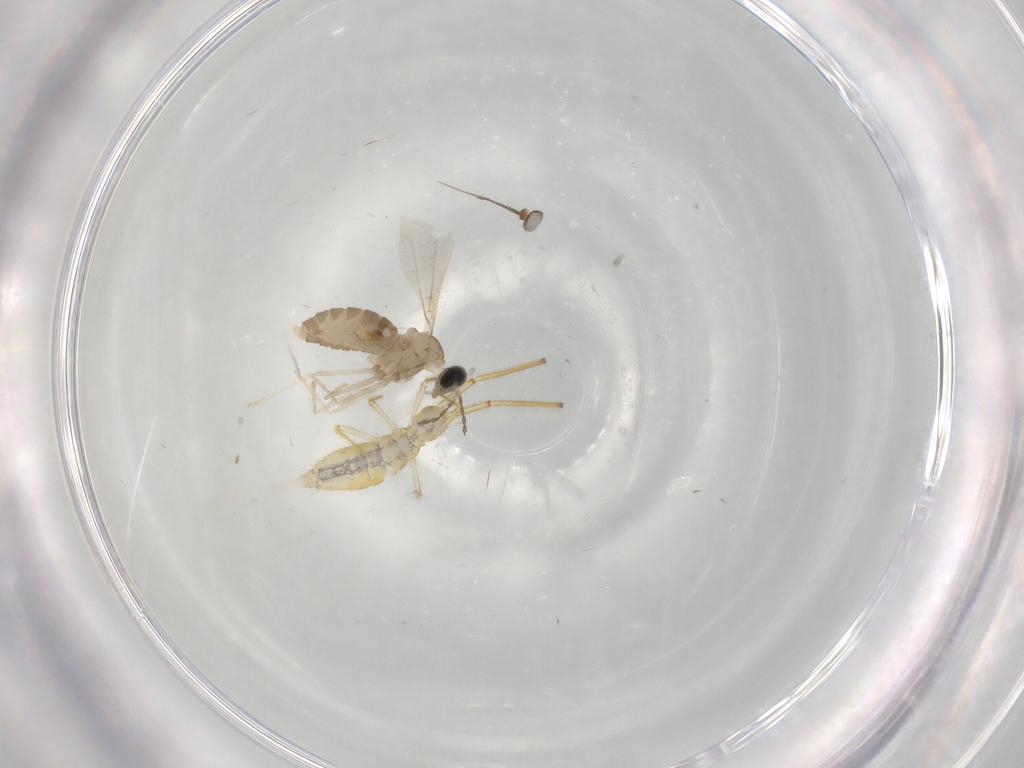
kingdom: Animalia
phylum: Arthropoda
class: Insecta
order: Diptera
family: Cecidomyiidae
